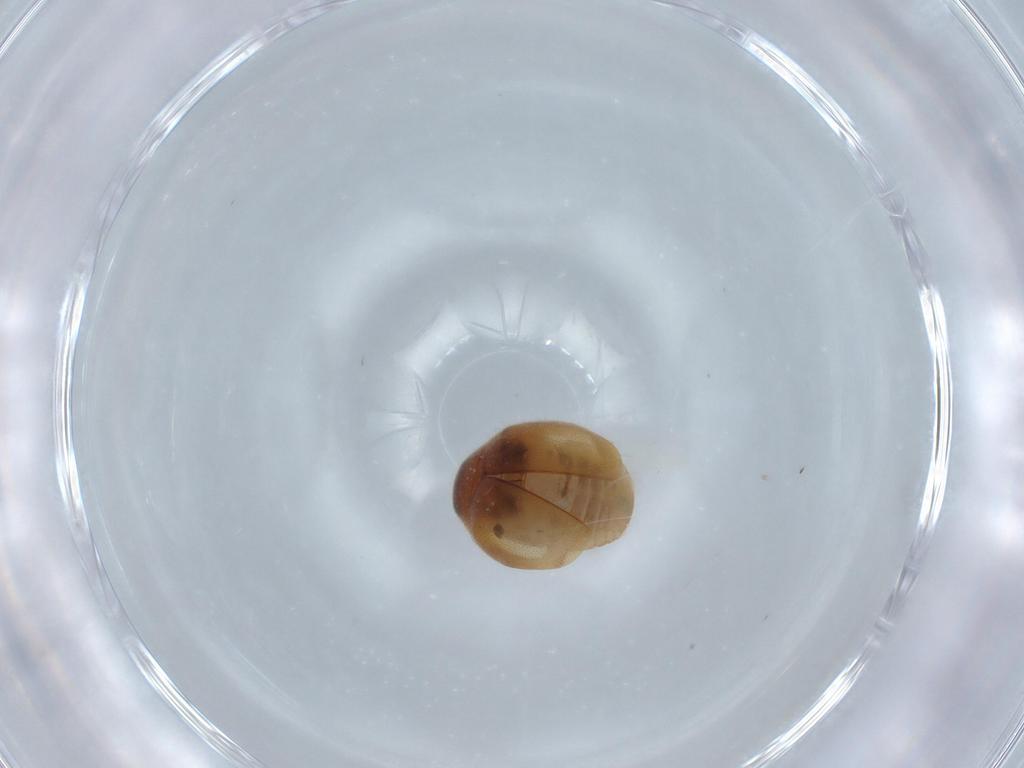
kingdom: Animalia
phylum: Arthropoda
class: Insecta
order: Coleoptera
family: Coccinellidae
